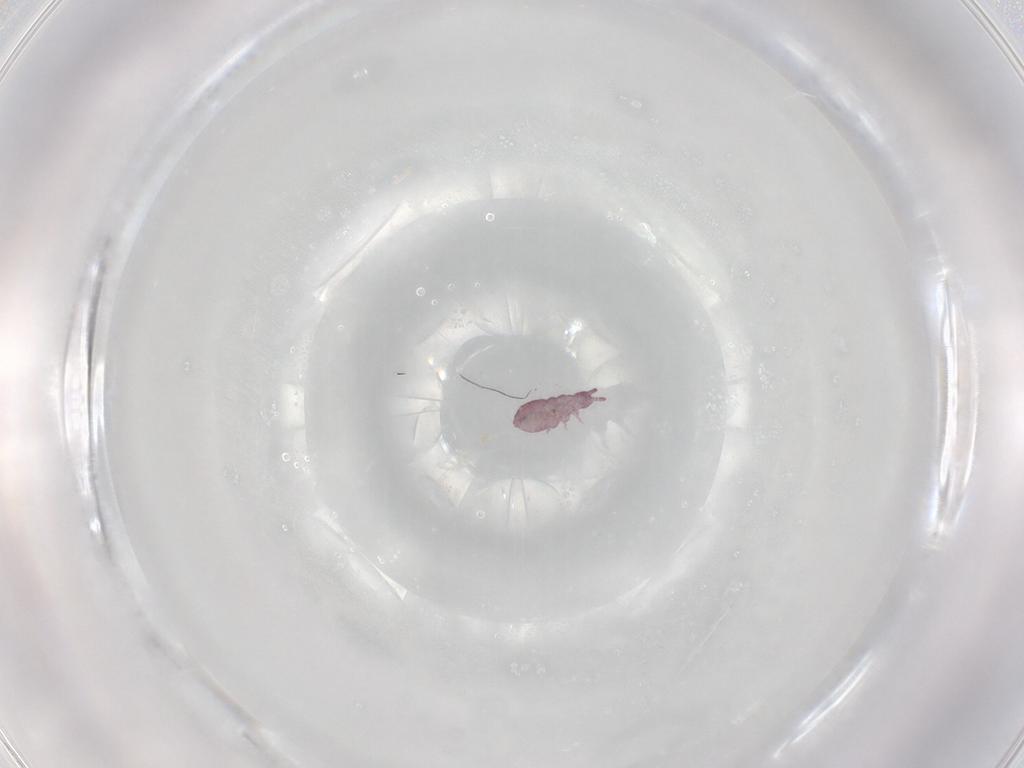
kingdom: Animalia
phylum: Arthropoda
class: Collembola
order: Poduromorpha
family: Brachystomellidae
